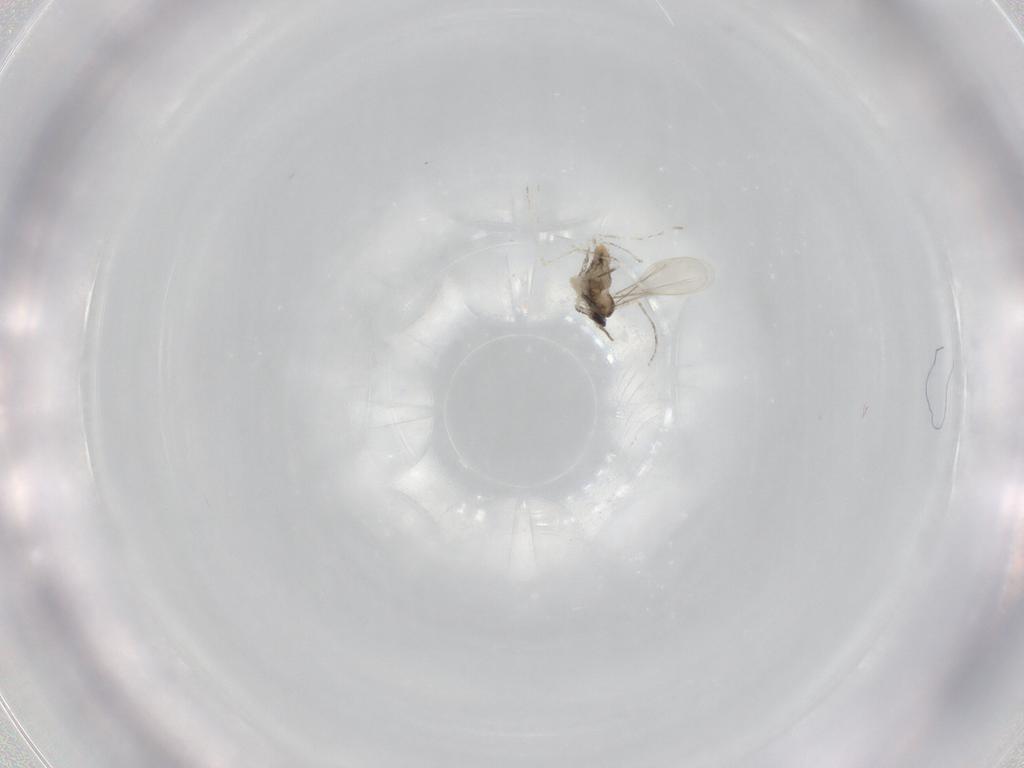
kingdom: Animalia
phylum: Arthropoda
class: Insecta
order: Diptera
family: Cecidomyiidae
